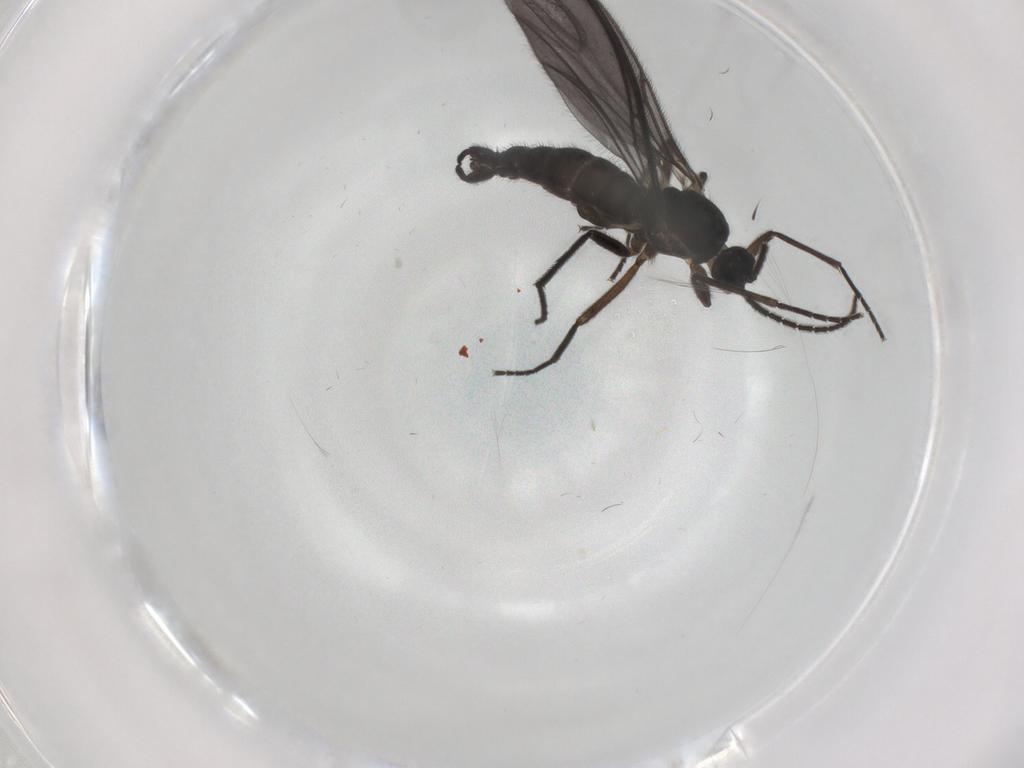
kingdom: Animalia
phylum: Arthropoda
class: Insecta
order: Diptera
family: Sciaridae
